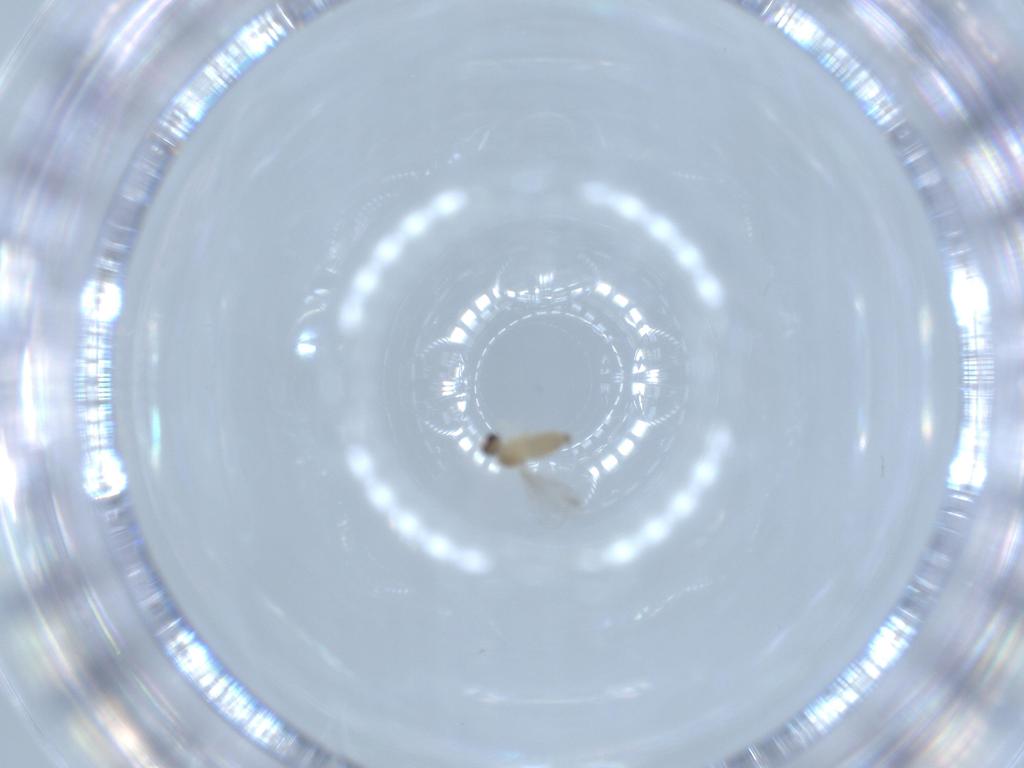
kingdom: Animalia
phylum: Arthropoda
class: Insecta
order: Diptera
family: Cecidomyiidae
